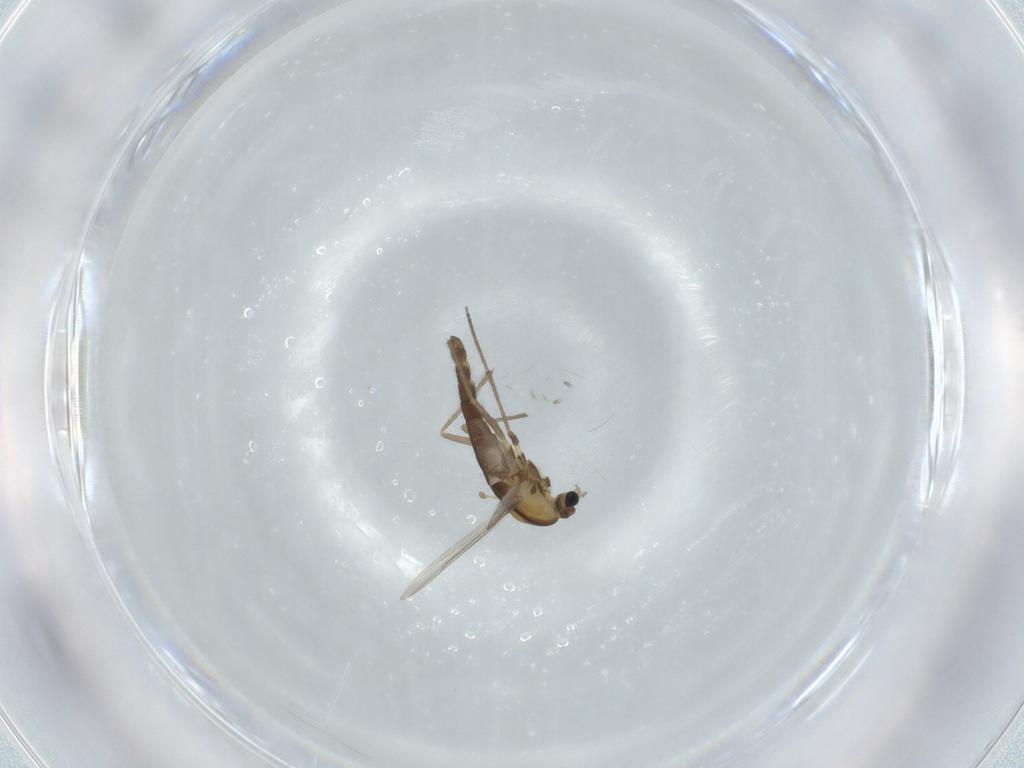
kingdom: Animalia
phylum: Arthropoda
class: Insecta
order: Diptera
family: Chironomidae
